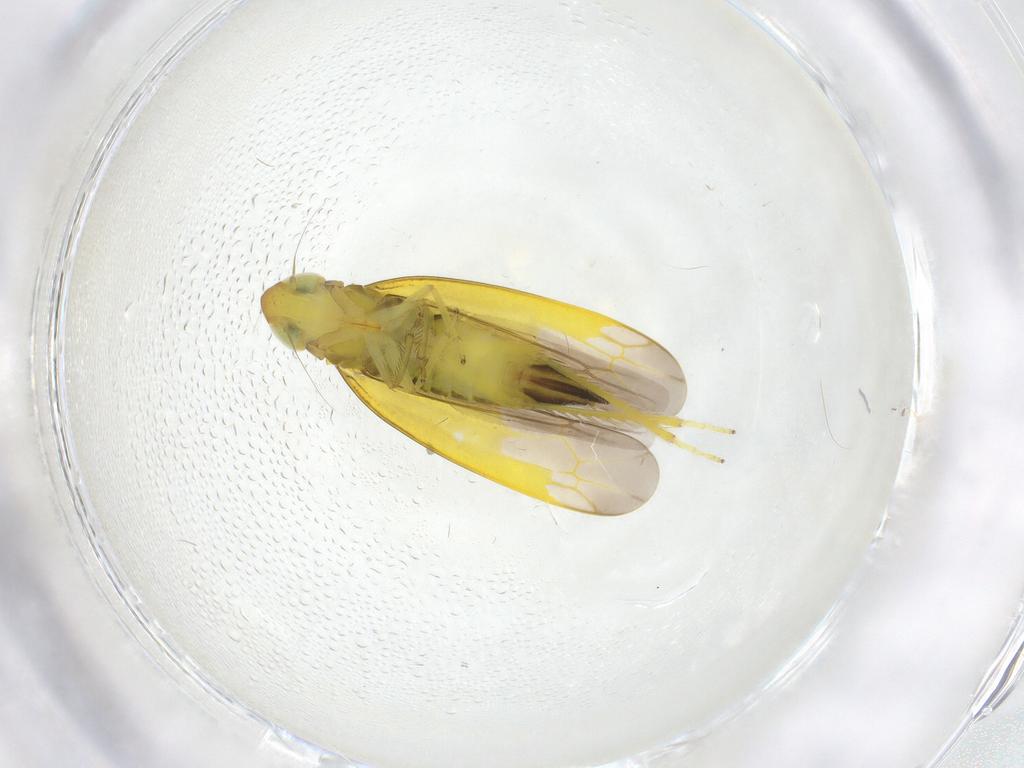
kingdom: Animalia
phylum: Arthropoda
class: Insecta
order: Hemiptera
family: Cicadellidae
